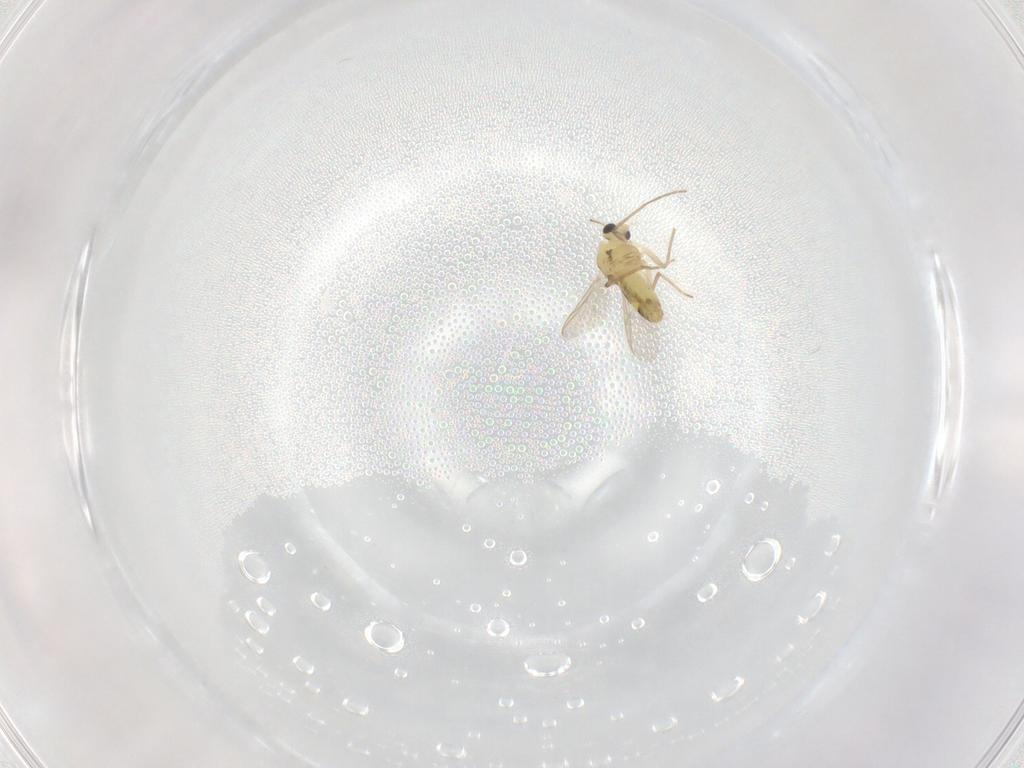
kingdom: Animalia
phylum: Arthropoda
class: Insecta
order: Diptera
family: Chironomidae
